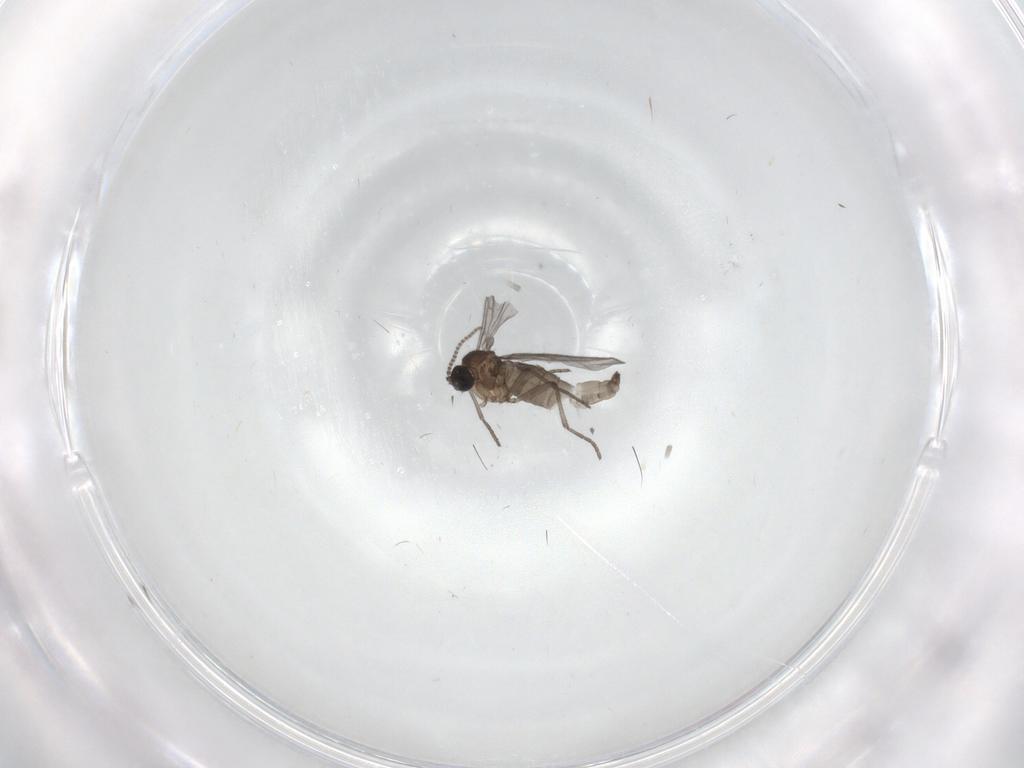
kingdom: Animalia
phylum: Arthropoda
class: Insecta
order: Diptera
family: Sciaridae
